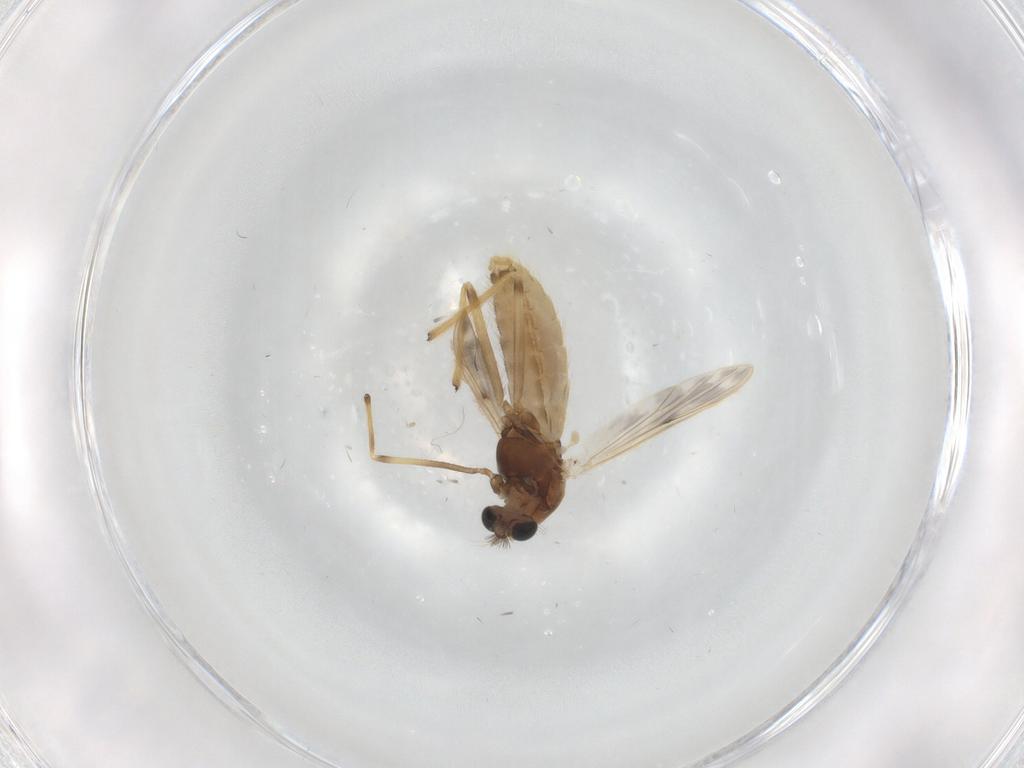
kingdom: Animalia
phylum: Arthropoda
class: Insecta
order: Diptera
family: Chironomidae
